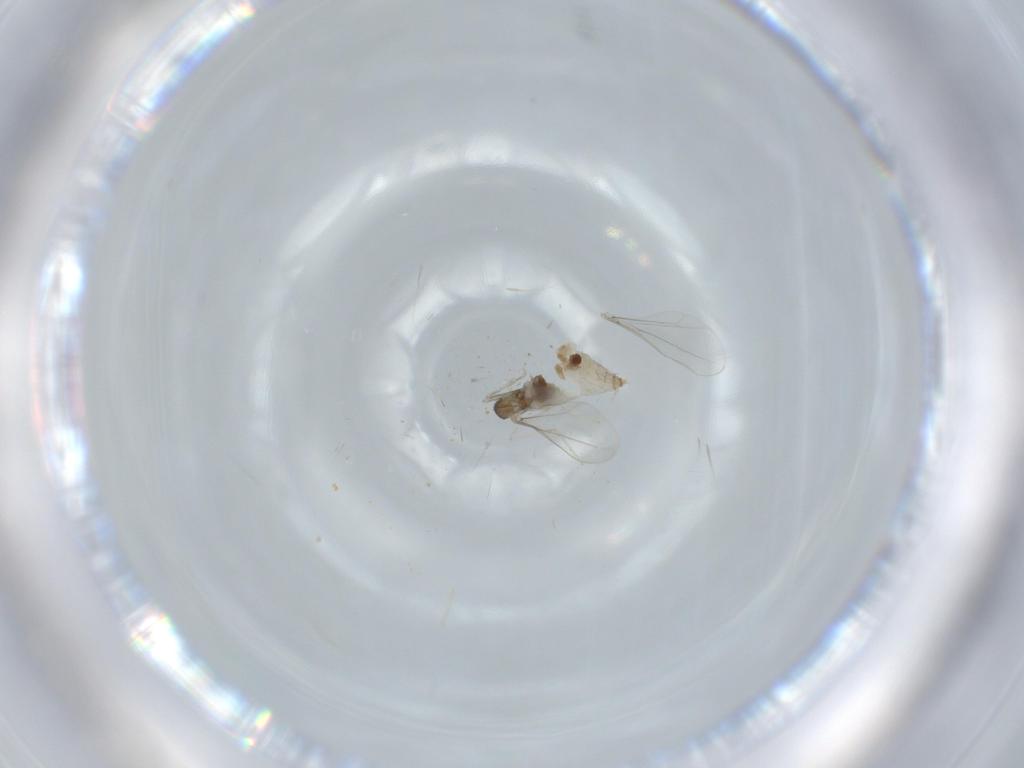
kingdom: Animalia
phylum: Arthropoda
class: Insecta
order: Diptera
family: Cecidomyiidae
